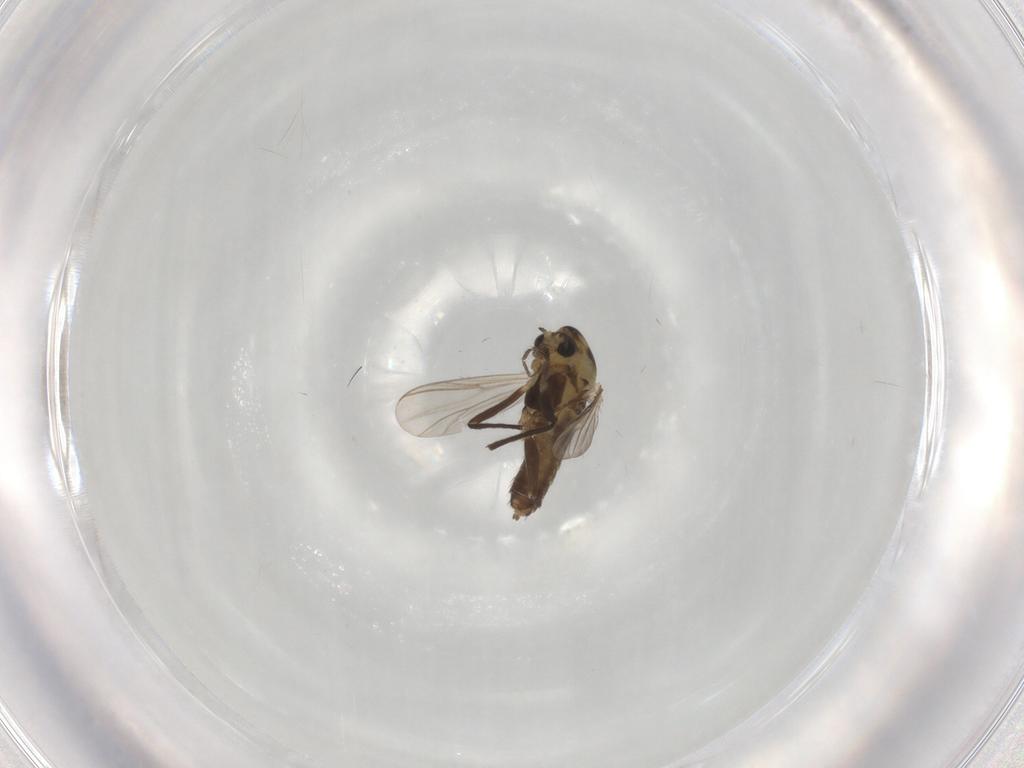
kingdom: Animalia
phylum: Arthropoda
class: Insecta
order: Diptera
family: Chironomidae
